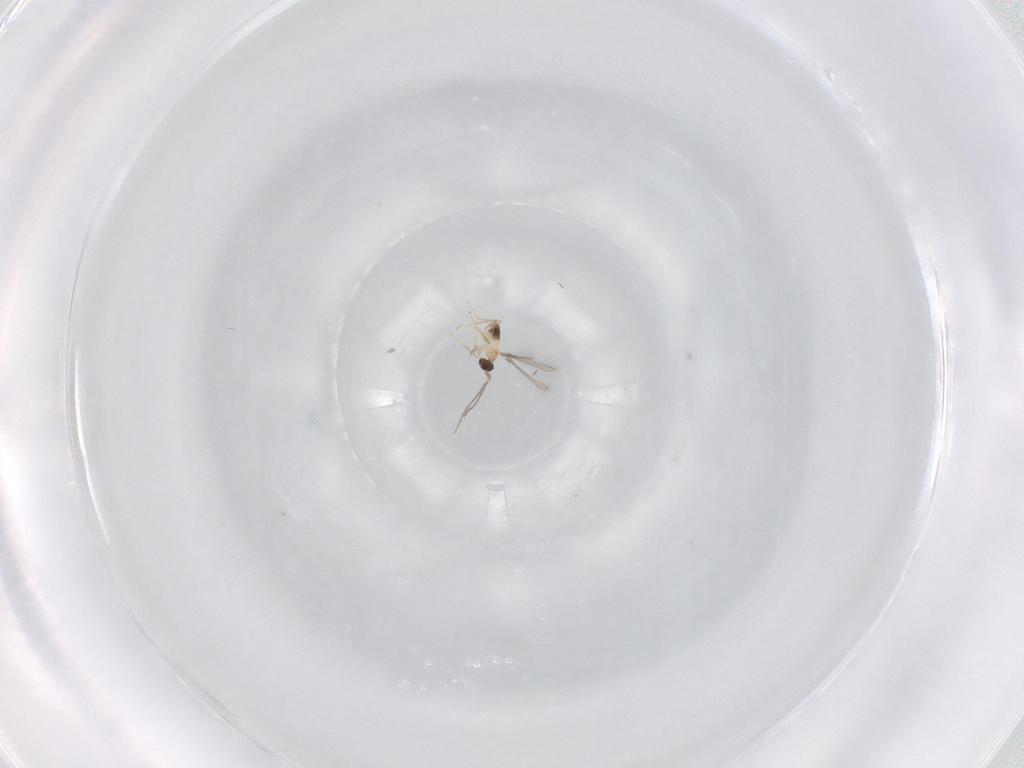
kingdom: Animalia
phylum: Arthropoda
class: Insecta
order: Hymenoptera
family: Mymaridae
